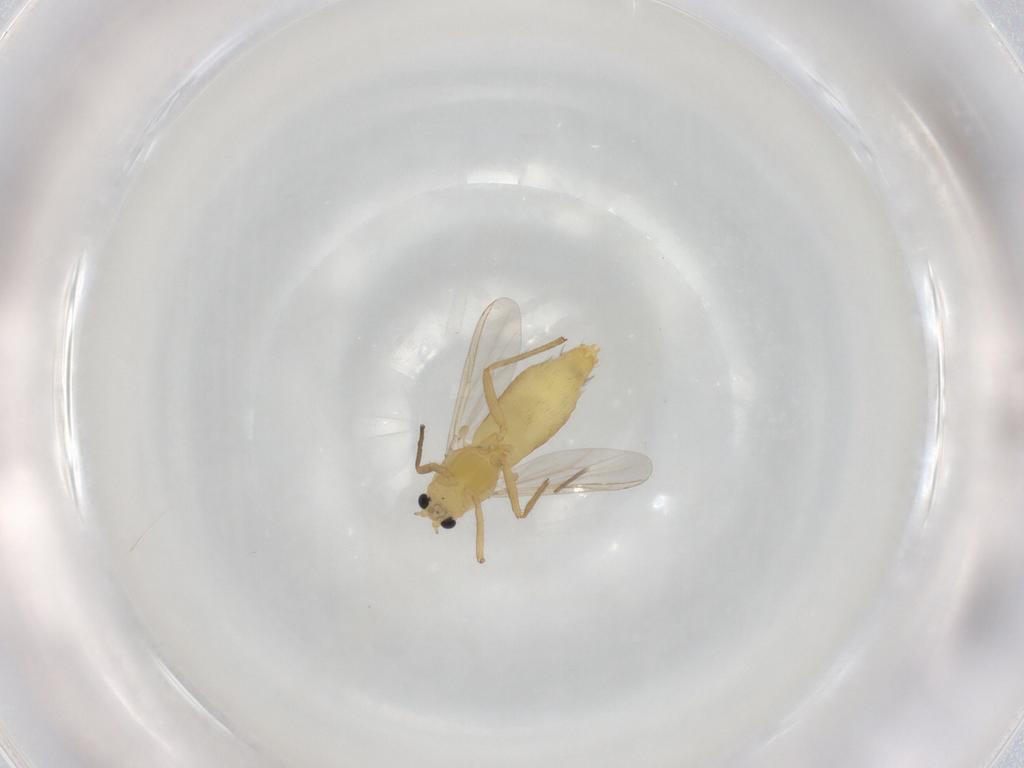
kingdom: Animalia
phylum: Arthropoda
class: Insecta
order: Diptera
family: Chironomidae
